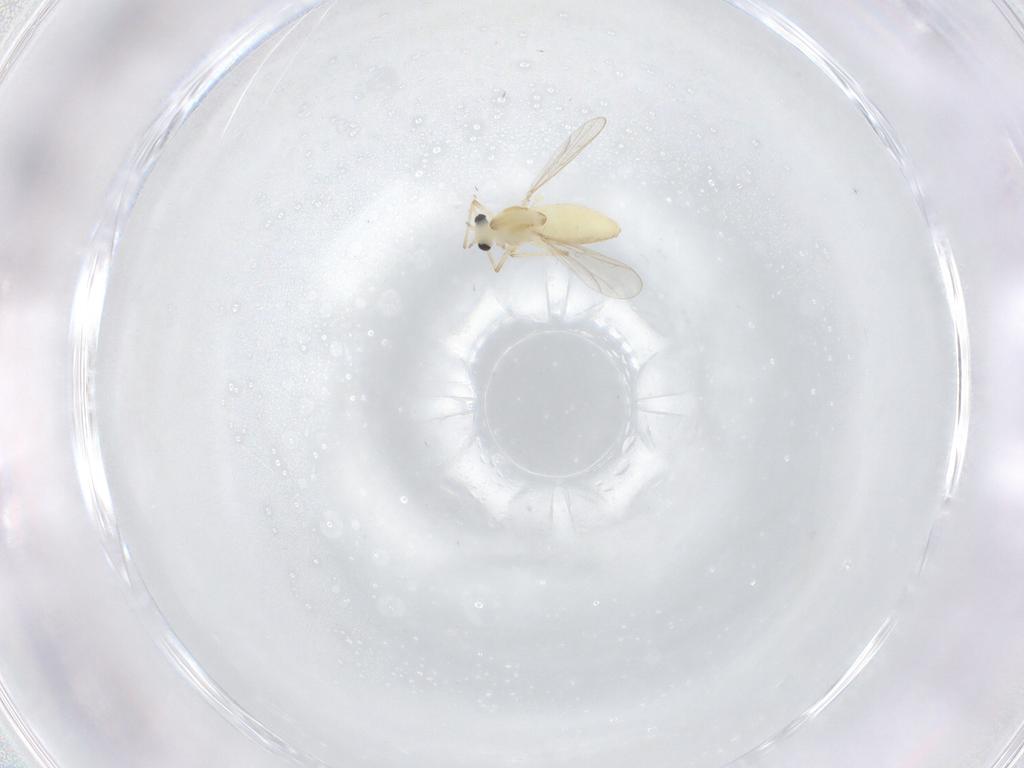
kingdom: Animalia
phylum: Arthropoda
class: Insecta
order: Diptera
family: Chironomidae
